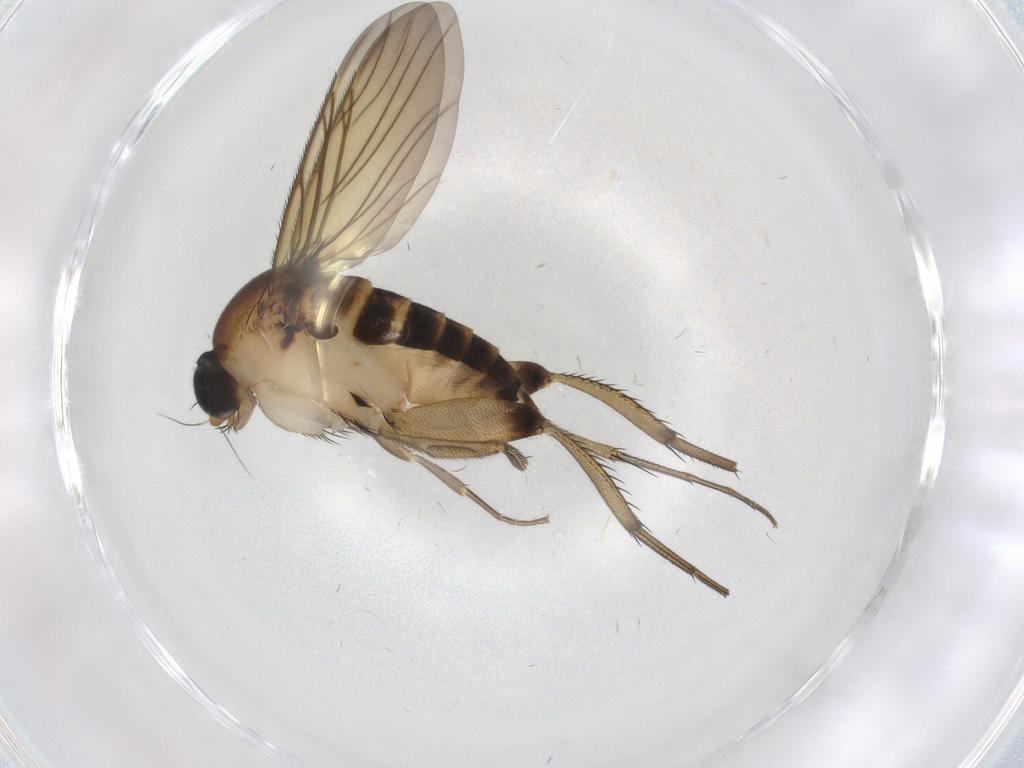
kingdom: Animalia
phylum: Arthropoda
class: Insecta
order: Diptera
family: Phoridae
